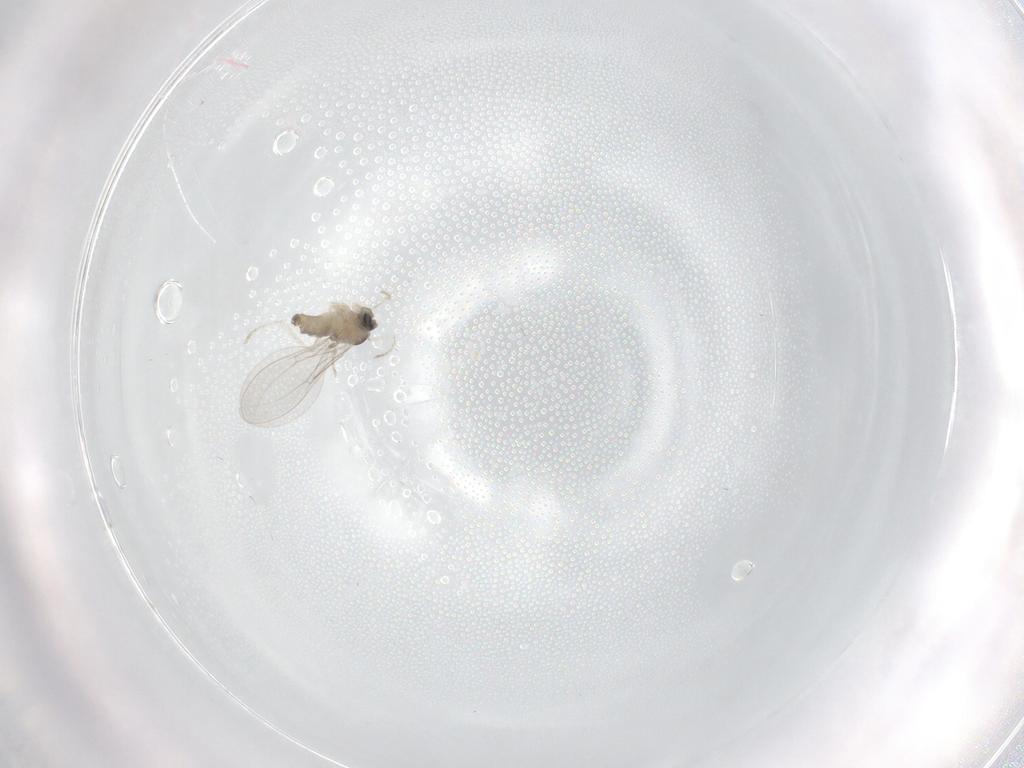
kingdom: Animalia
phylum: Arthropoda
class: Insecta
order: Diptera
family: Cecidomyiidae
